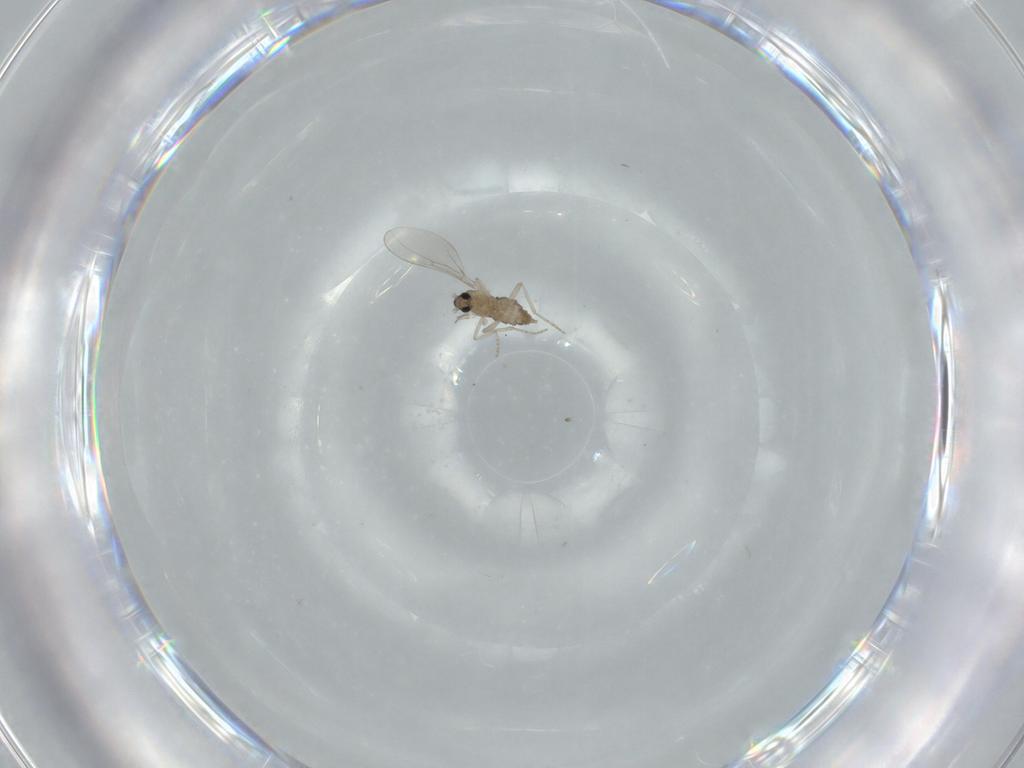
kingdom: Animalia
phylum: Arthropoda
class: Insecta
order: Diptera
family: Cecidomyiidae
